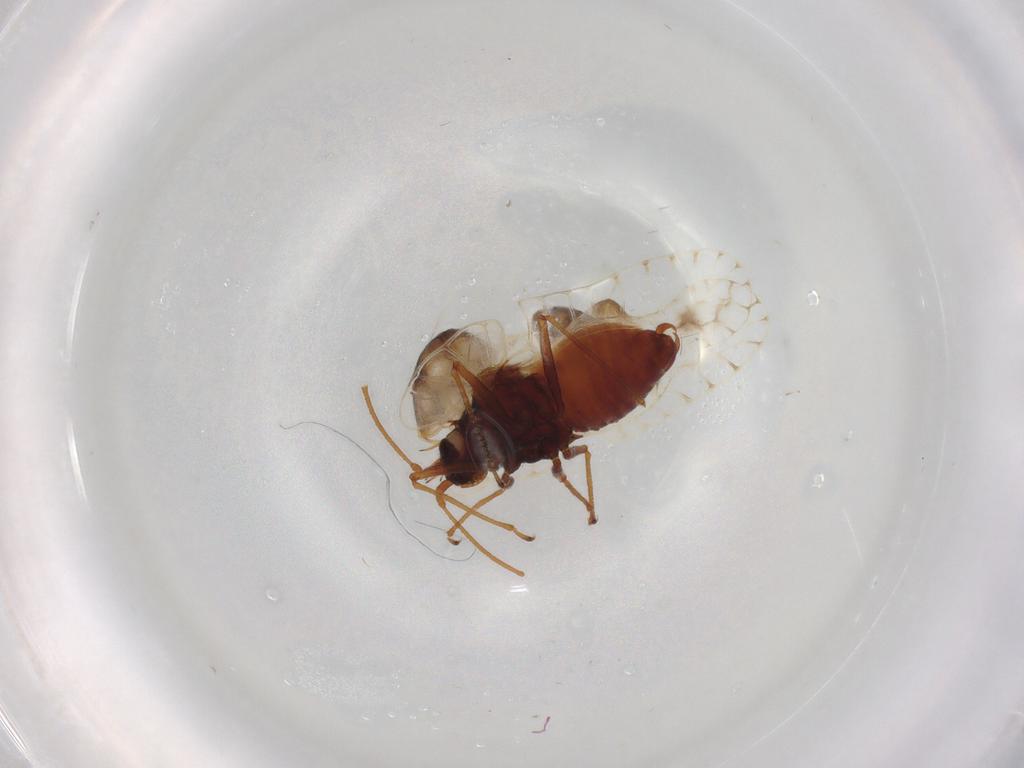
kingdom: Animalia
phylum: Arthropoda
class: Insecta
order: Hemiptera
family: Tingidae
